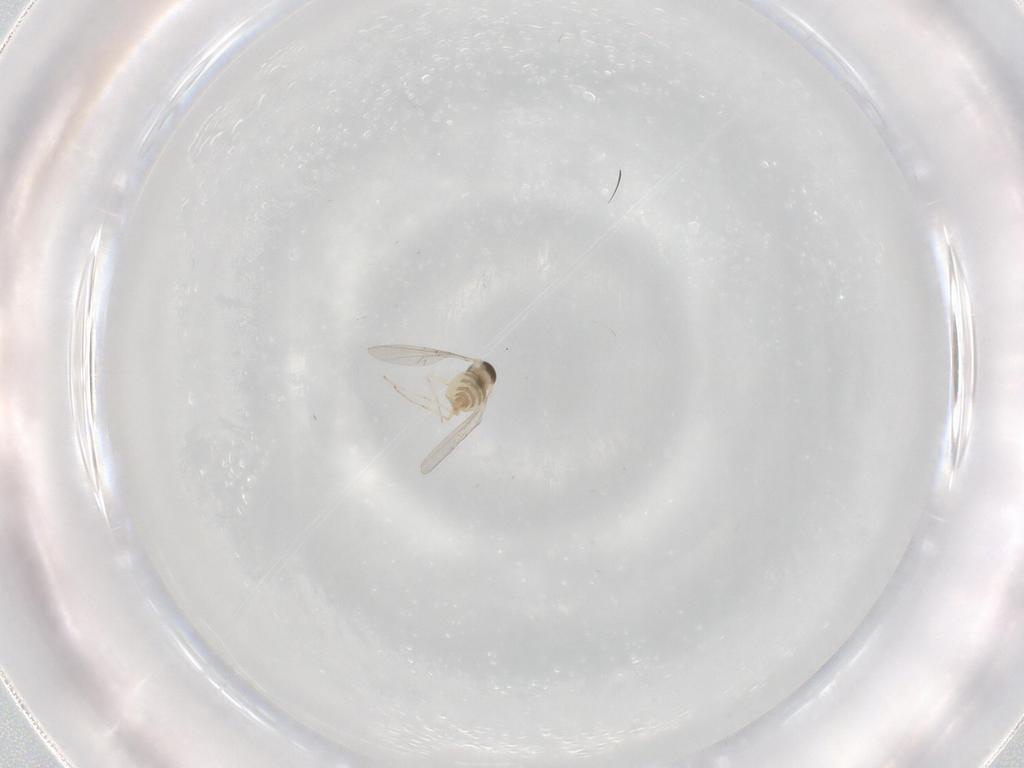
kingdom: Animalia
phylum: Arthropoda
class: Insecta
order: Diptera
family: Cecidomyiidae
